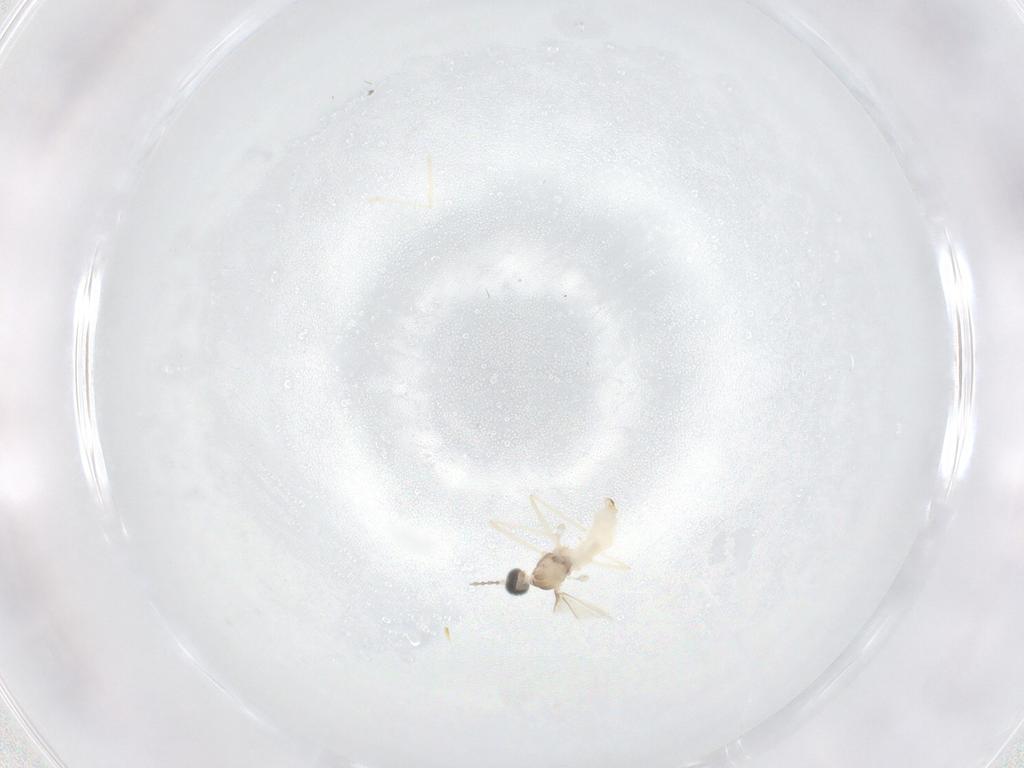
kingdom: Animalia
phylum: Arthropoda
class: Insecta
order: Diptera
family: Cecidomyiidae
